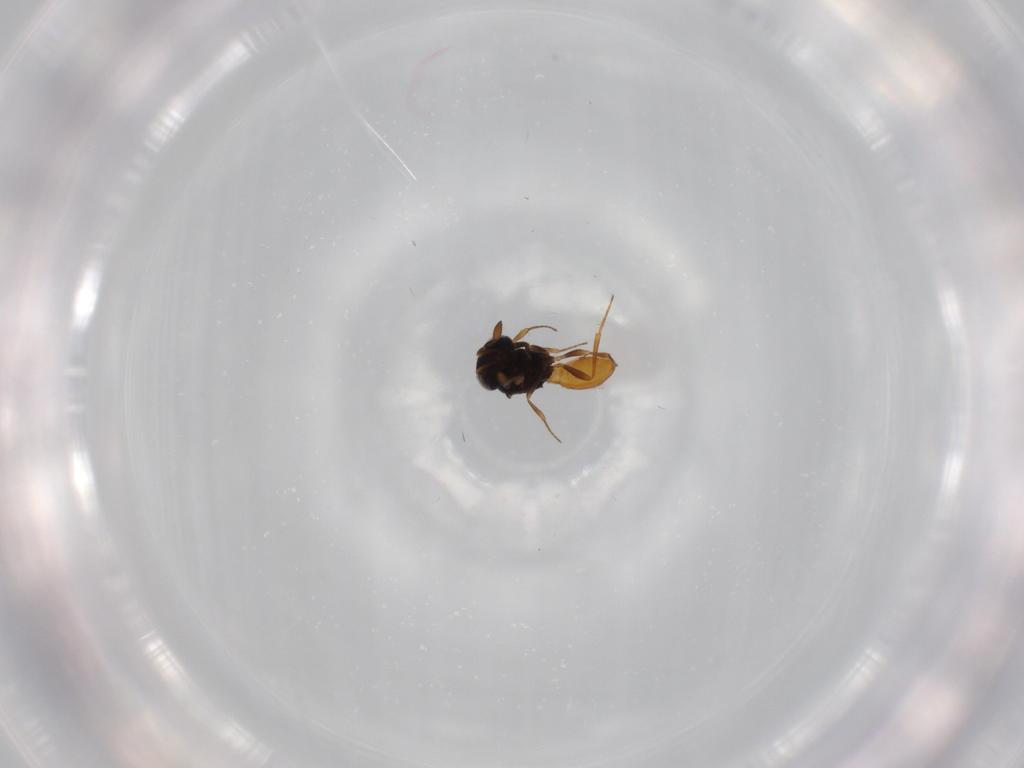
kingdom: Animalia
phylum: Arthropoda
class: Insecta
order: Hymenoptera
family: Scelionidae
